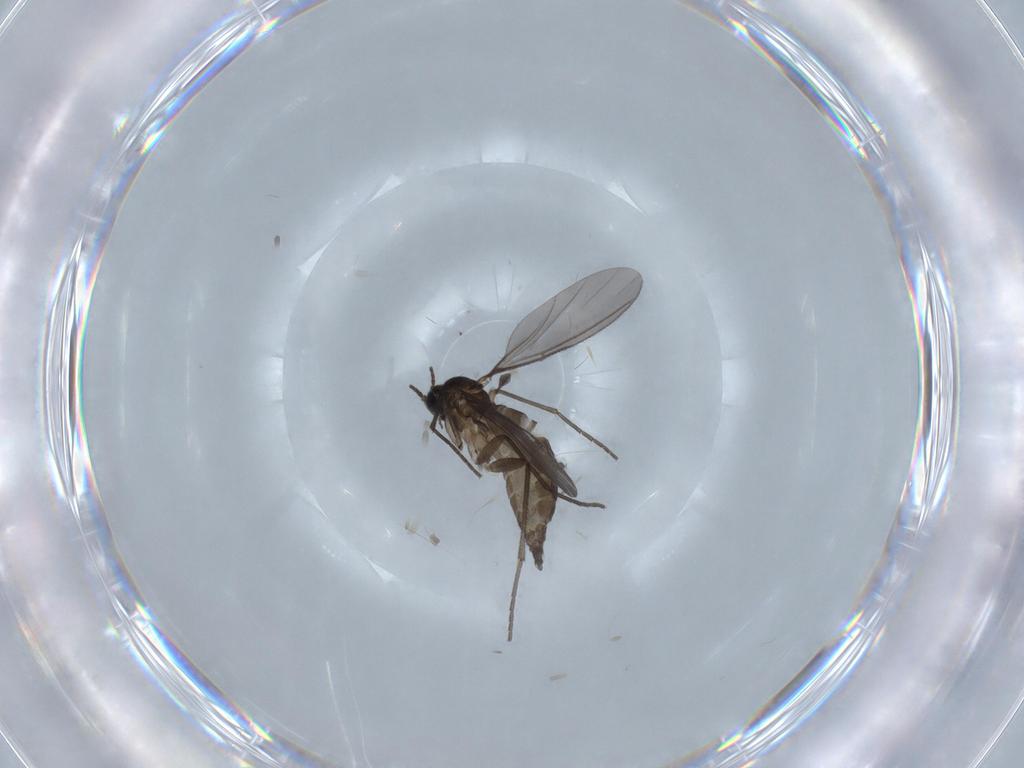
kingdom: Animalia
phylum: Arthropoda
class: Insecta
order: Diptera
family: Sciaridae
